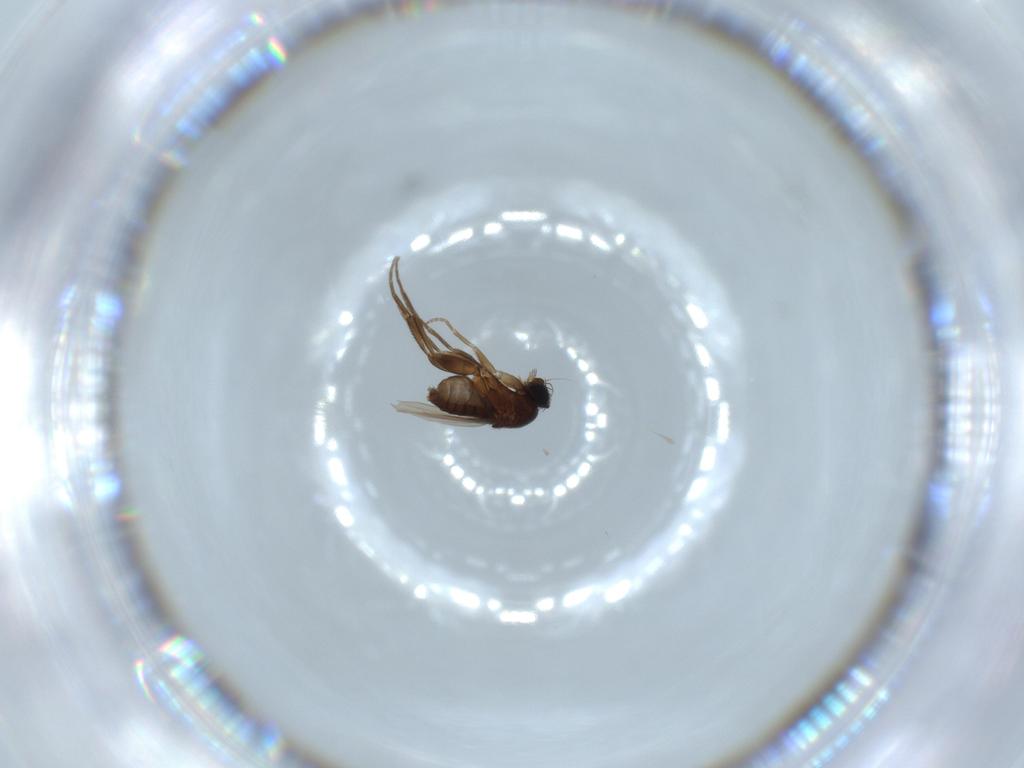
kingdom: Animalia
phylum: Arthropoda
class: Insecta
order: Diptera
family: Phoridae
